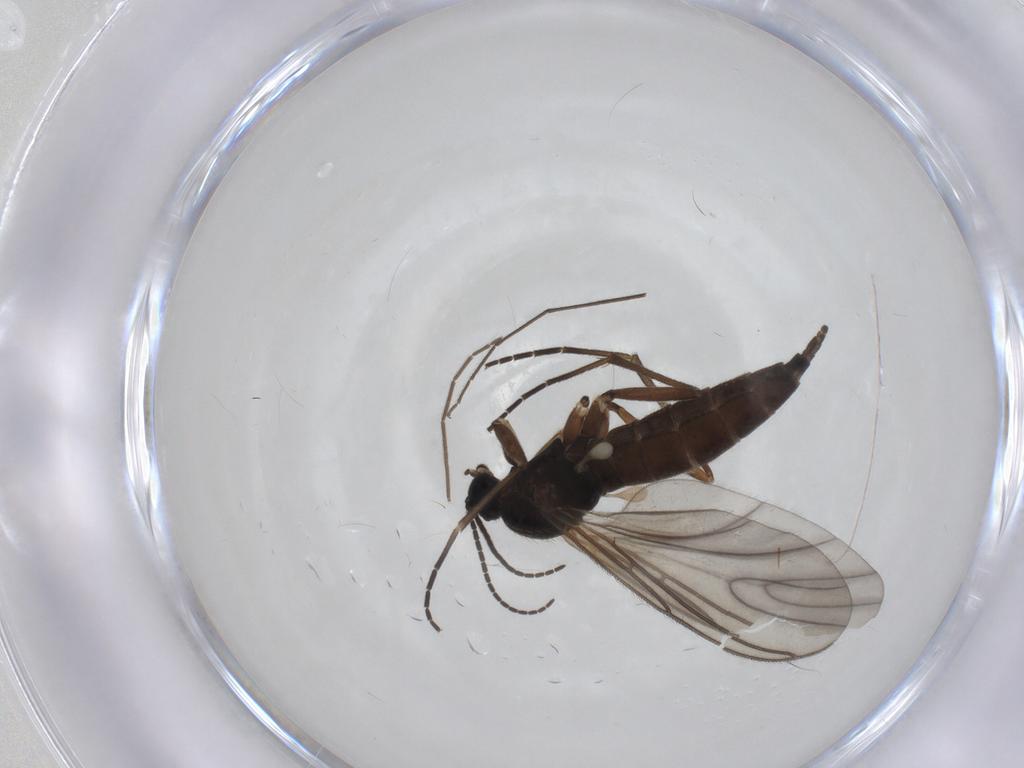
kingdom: Animalia
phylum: Arthropoda
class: Insecta
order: Diptera
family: Sciaridae
